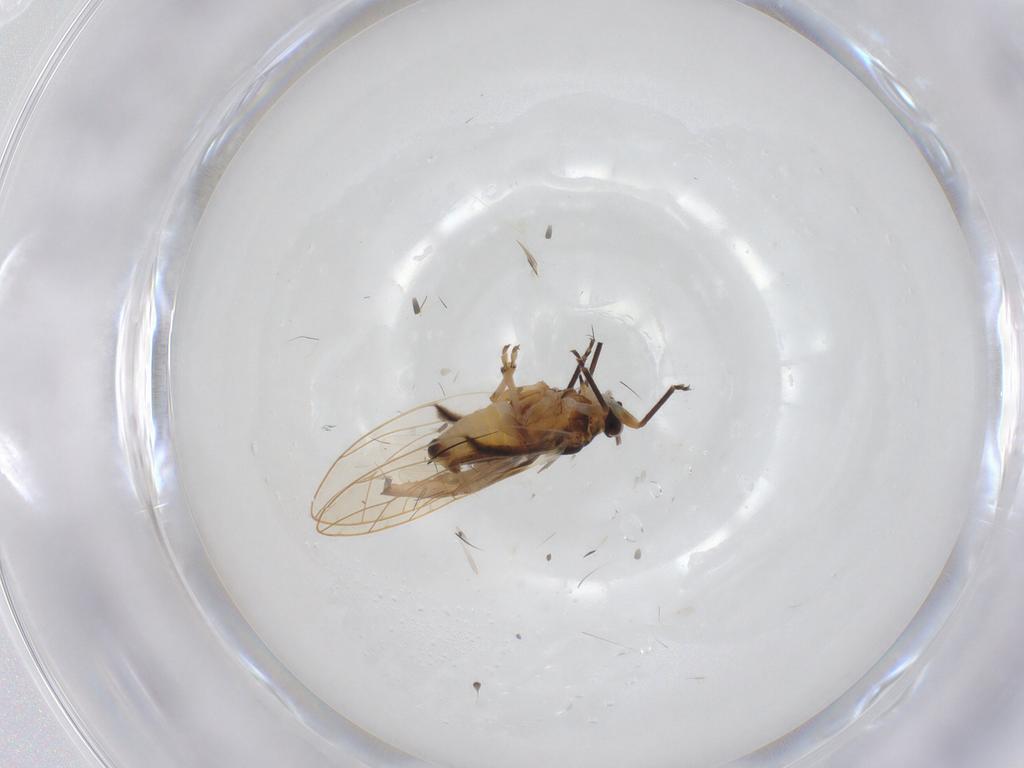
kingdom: Animalia
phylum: Arthropoda
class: Insecta
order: Hemiptera
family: Psylloidea_incertae_sedis
